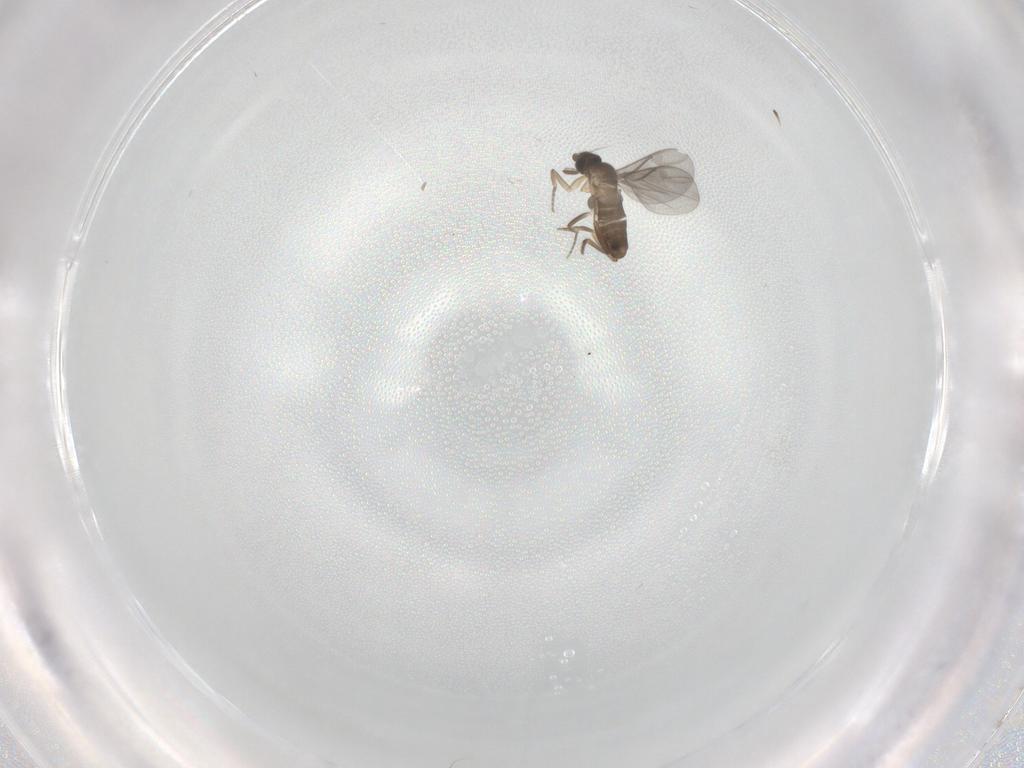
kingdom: Animalia
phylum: Arthropoda
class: Insecta
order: Diptera
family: Phoridae
